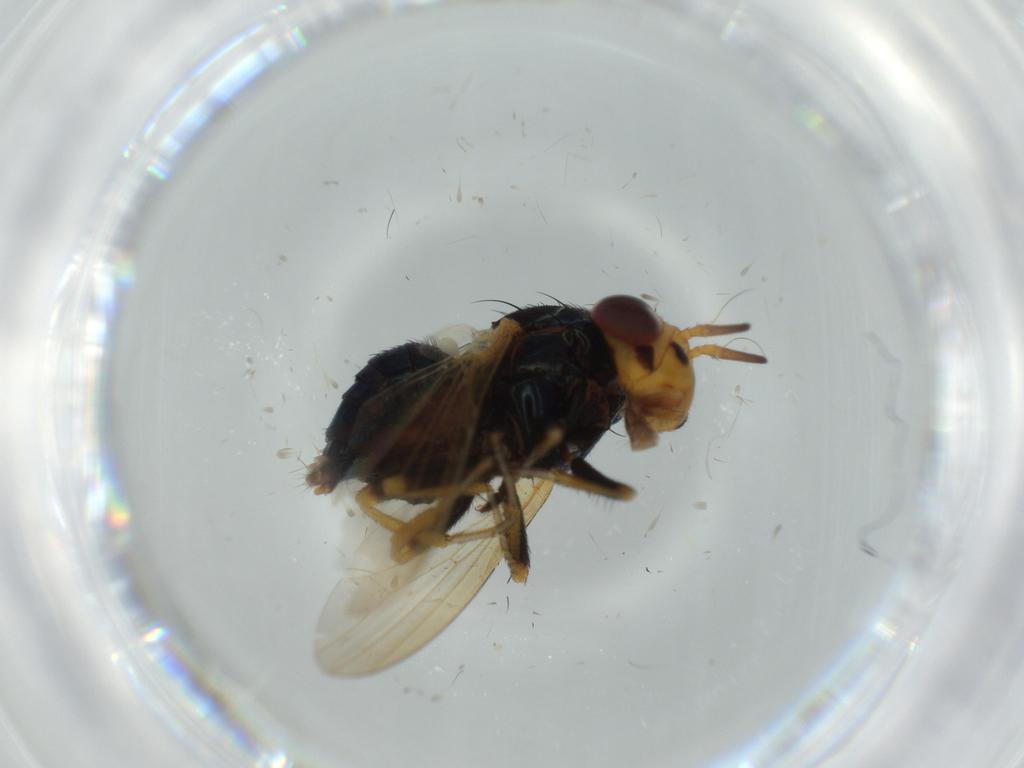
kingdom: Animalia
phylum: Arthropoda
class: Insecta
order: Diptera
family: Sciaridae
